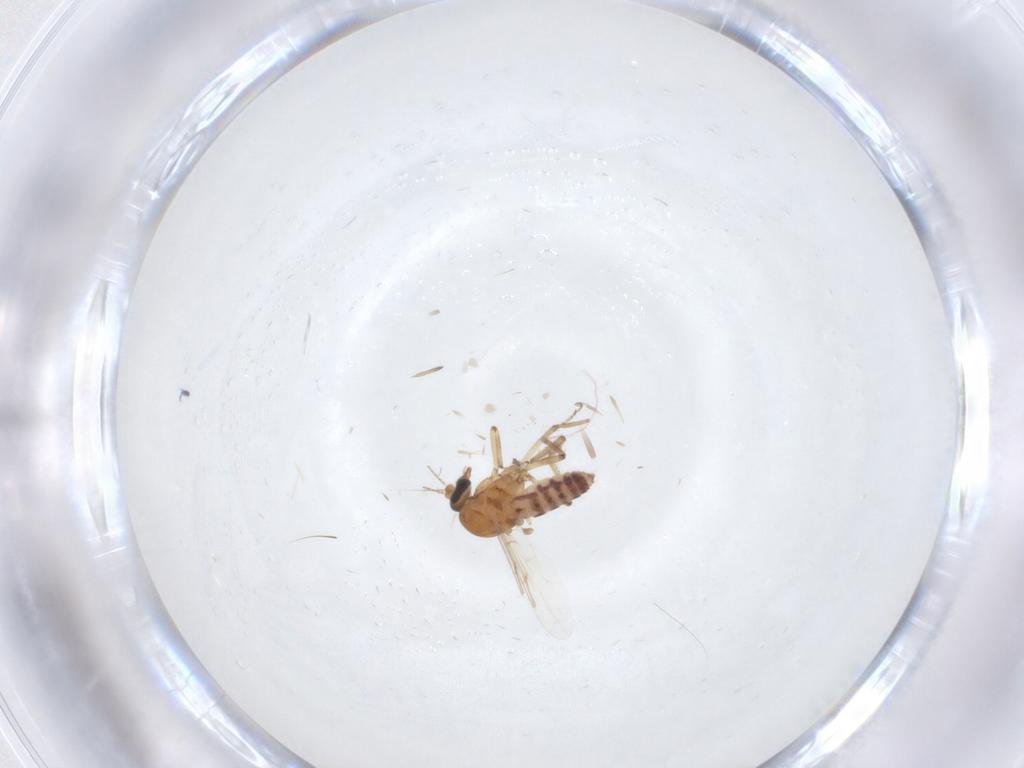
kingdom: Animalia
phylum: Arthropoda
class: Insecta
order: Diptera
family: Ceratopogonidae
